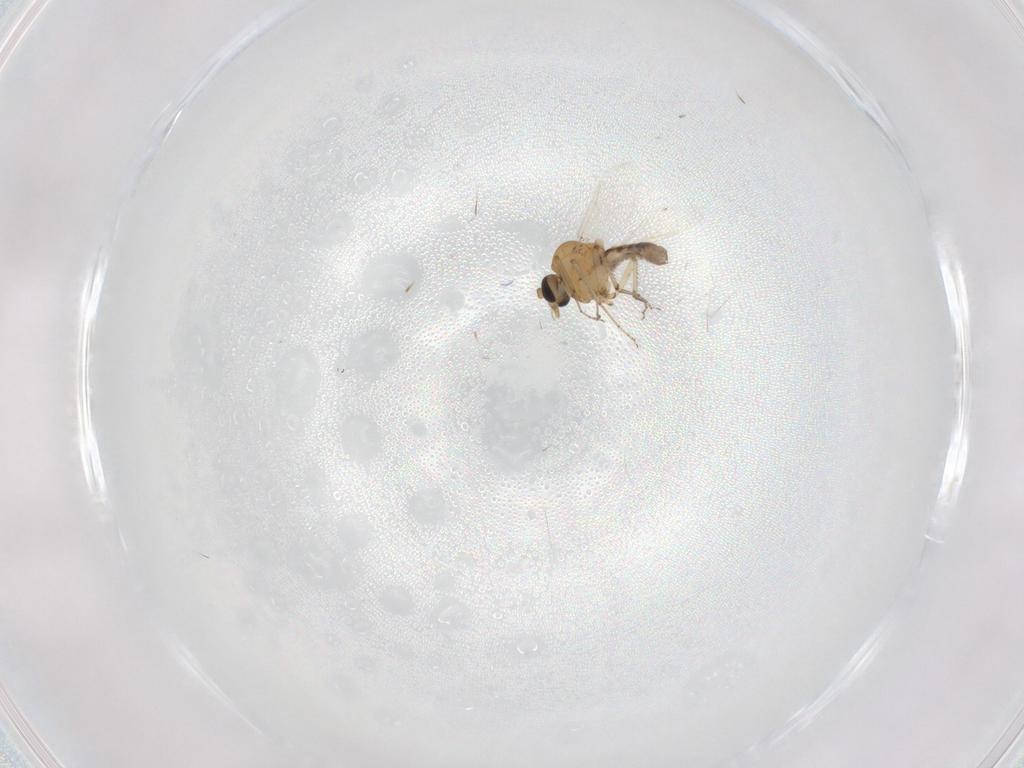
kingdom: Animalia
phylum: Arthropoda
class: Insecta
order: Diptera
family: Ceratopogonidae
